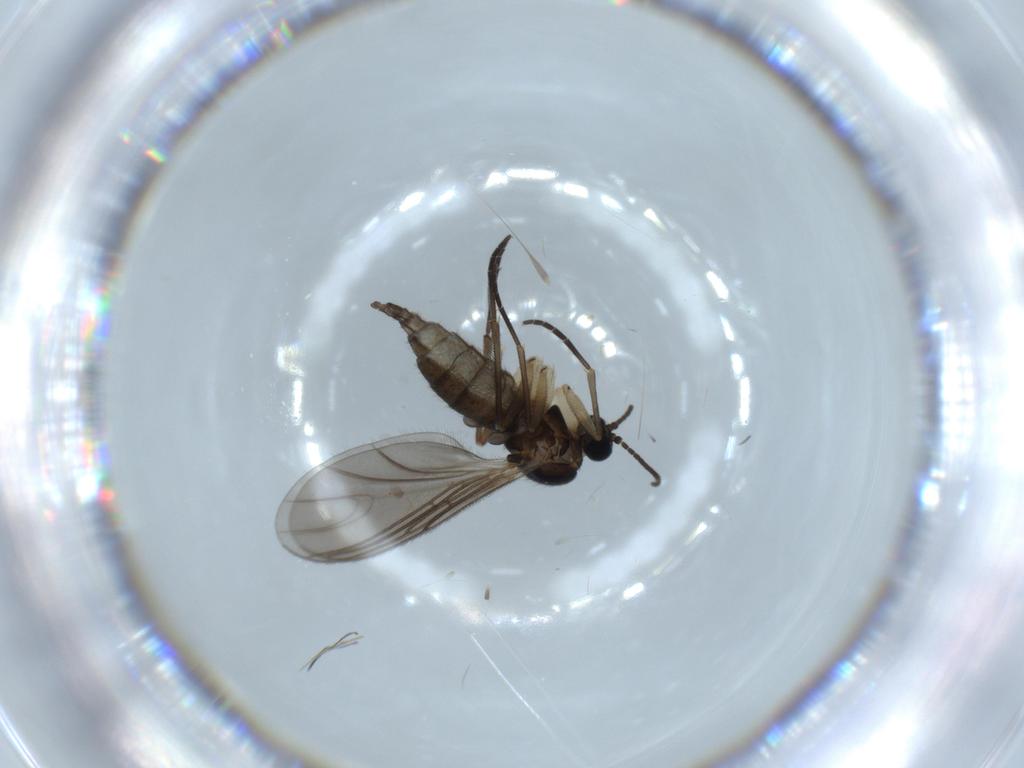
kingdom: Animalia
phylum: Arthropoda
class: Insecta
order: Diptera
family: Sciaridae
